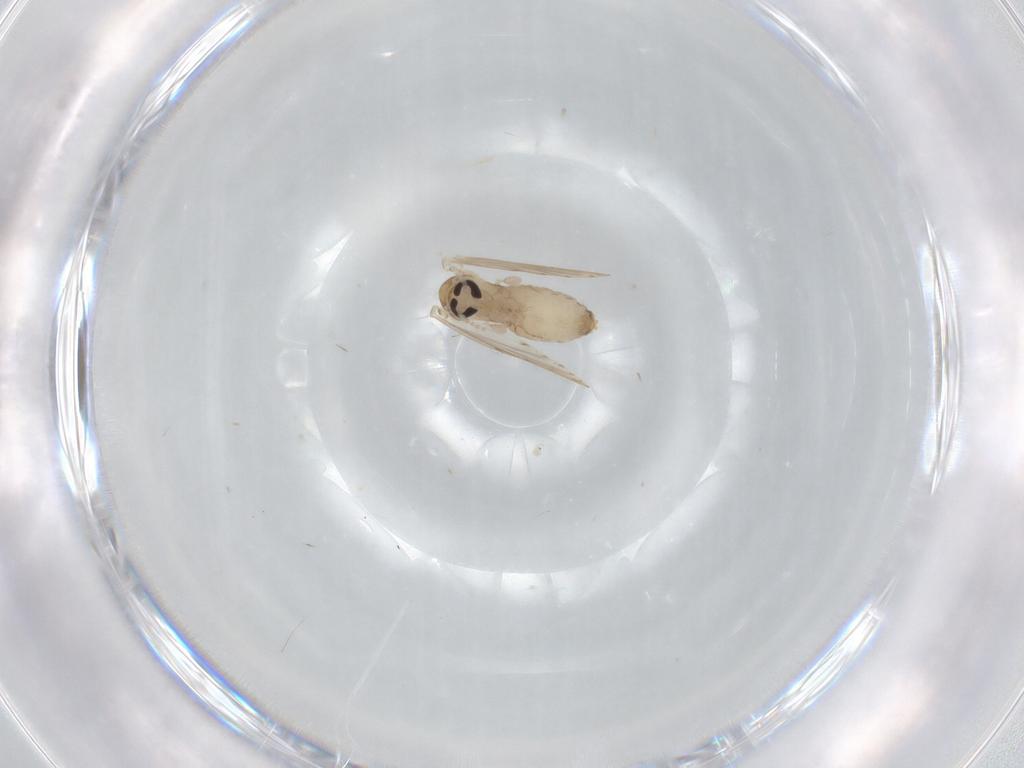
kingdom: Animalia
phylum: Arthropoda
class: Insecta
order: Diptera
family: Psychodidae
